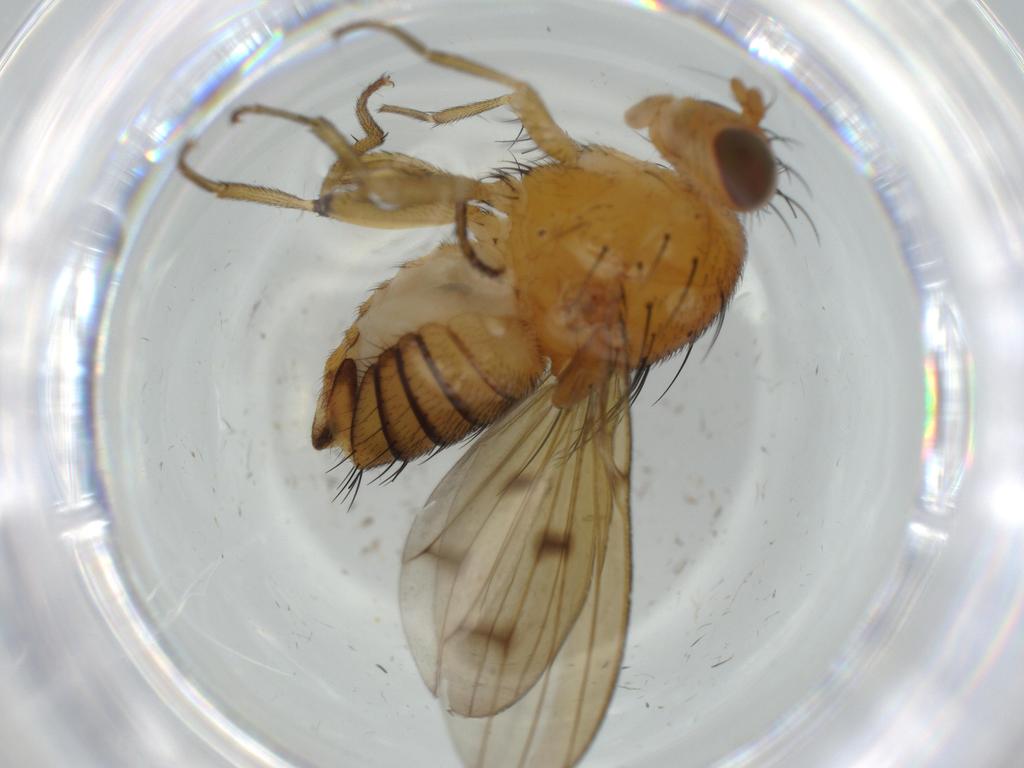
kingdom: Animalia
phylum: Arthropoda
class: Insecta
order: Diptera
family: Cecidomyiidae
